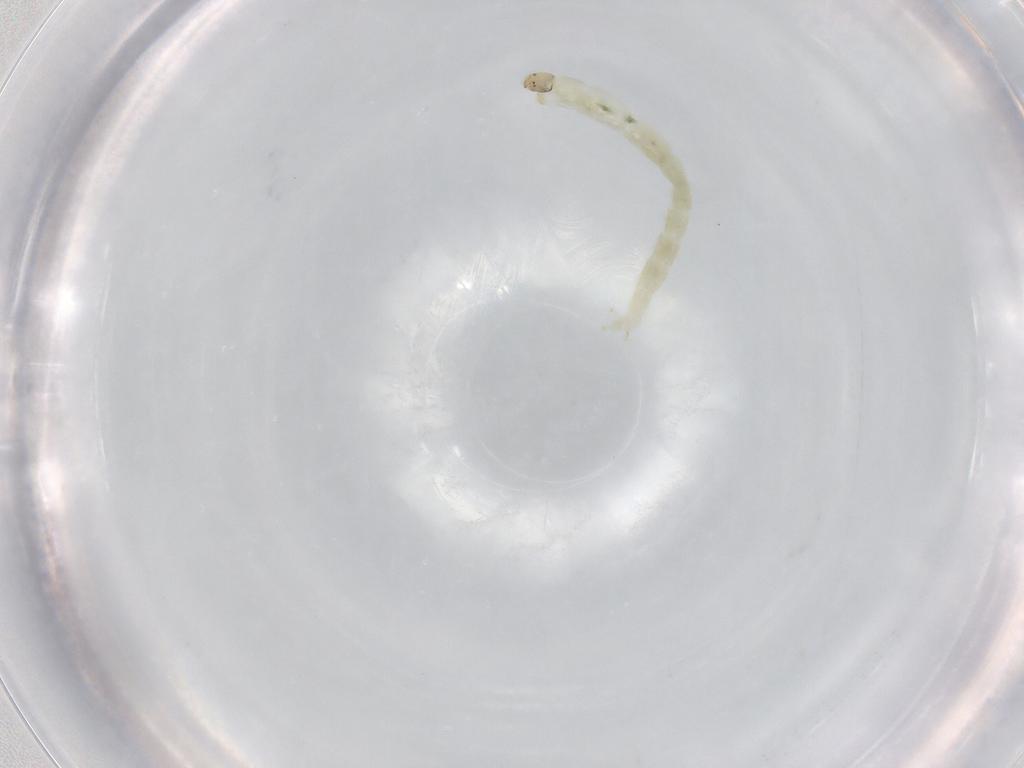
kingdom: Animalia
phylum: Arthropoda
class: Insecta
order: Diptera
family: Chironomidae
